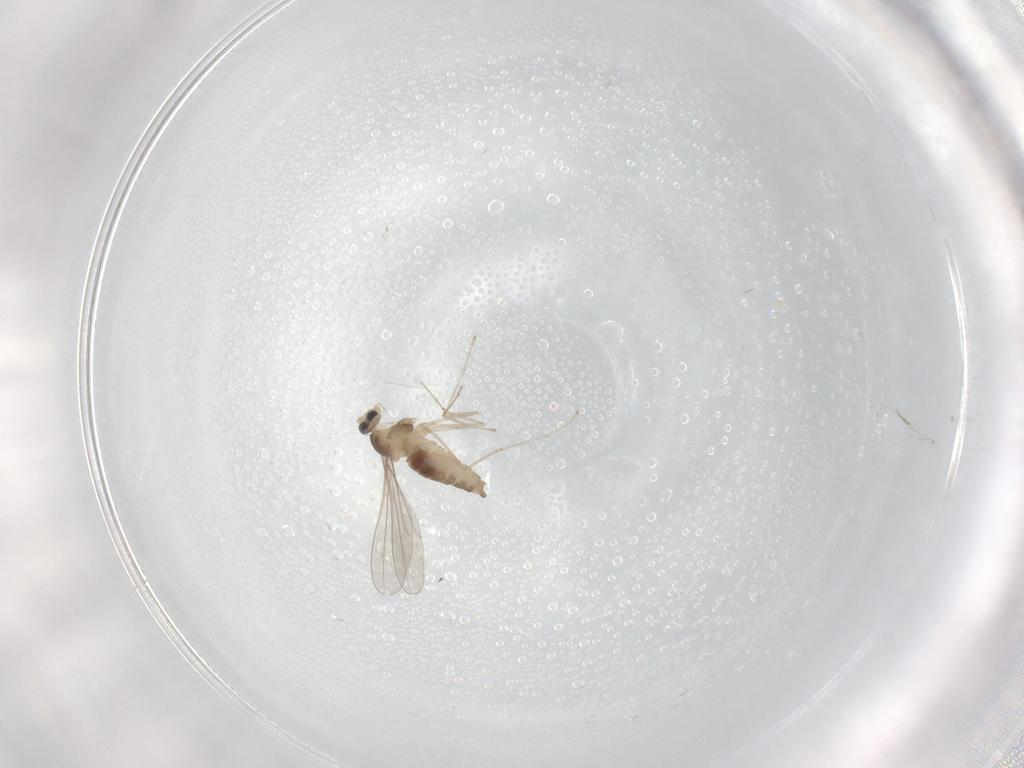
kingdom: Animalia
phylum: Arthropoda
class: Insecta
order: Diptera
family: Cecidomyiidae
